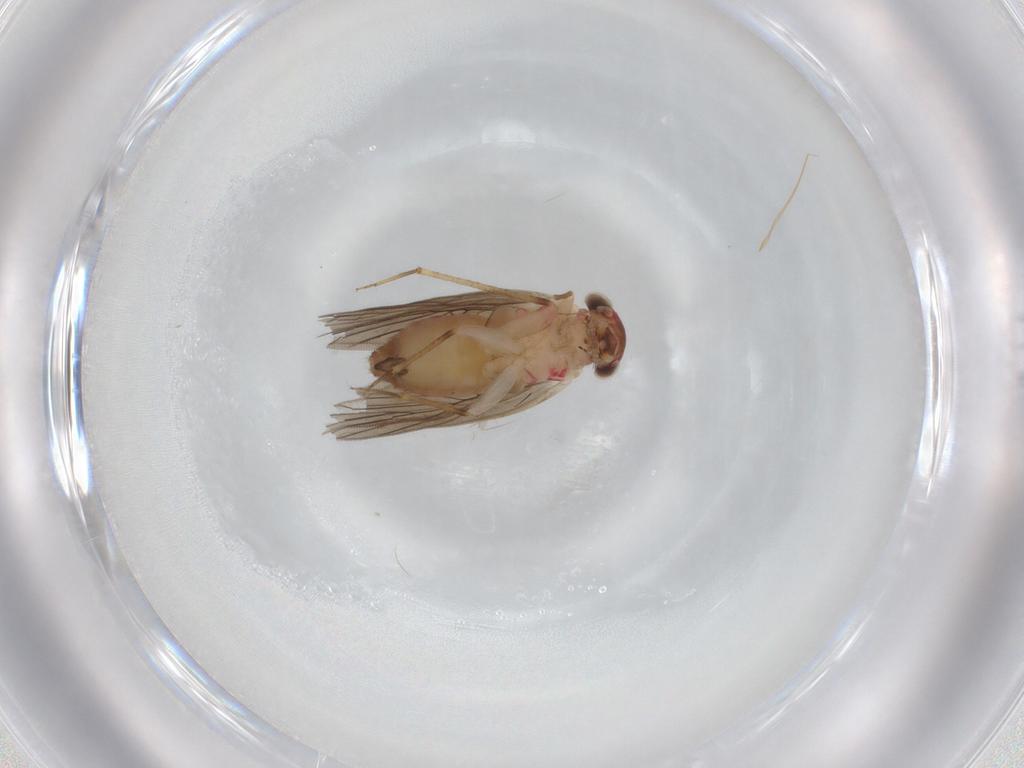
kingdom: Animalia
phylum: Arthropoda
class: Insecta
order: Psocodea
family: Lepidopsocidae
